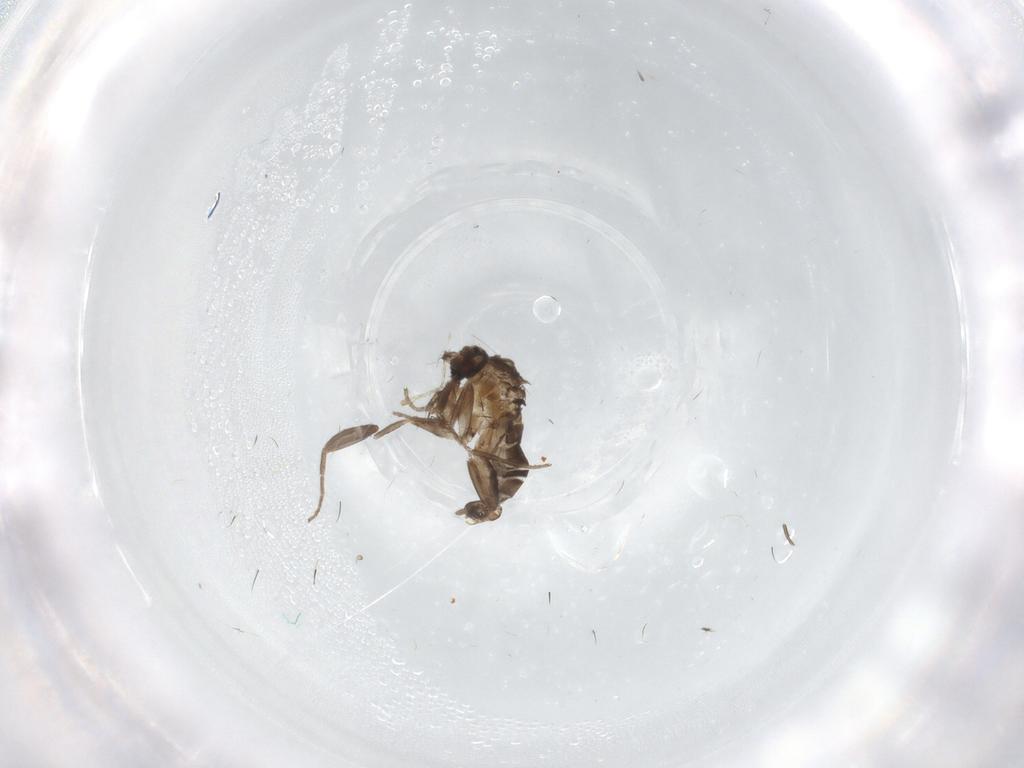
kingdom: Animalia
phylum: Arthropoda
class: Insecta
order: Diptera
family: Phoridae
